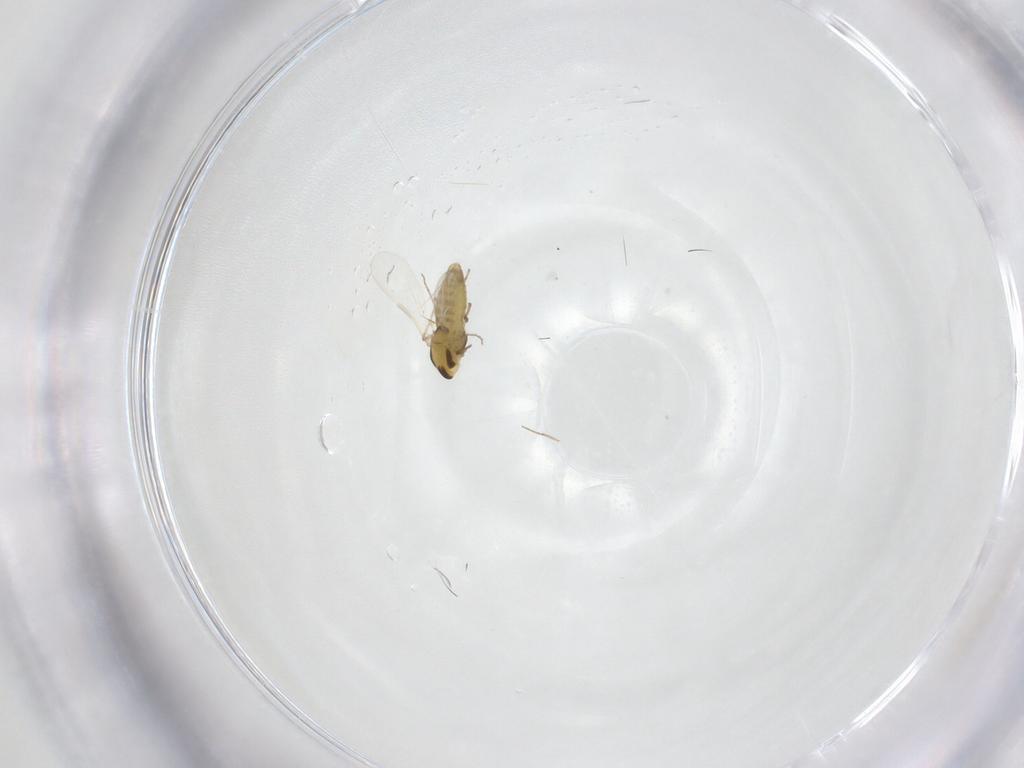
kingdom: Animalia
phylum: Arthropoda
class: Insecta
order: Diptera
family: Chironomidae
